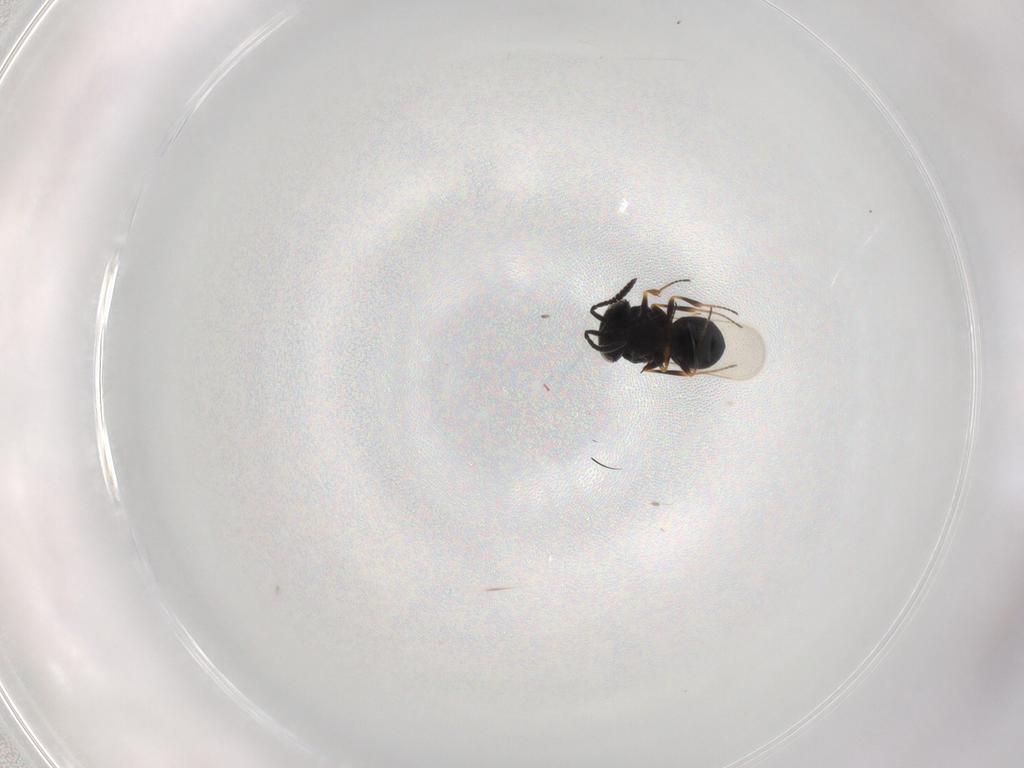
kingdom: Animalia
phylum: Arthropoda
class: Insecta
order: Hymenoptera
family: Scelionidae
